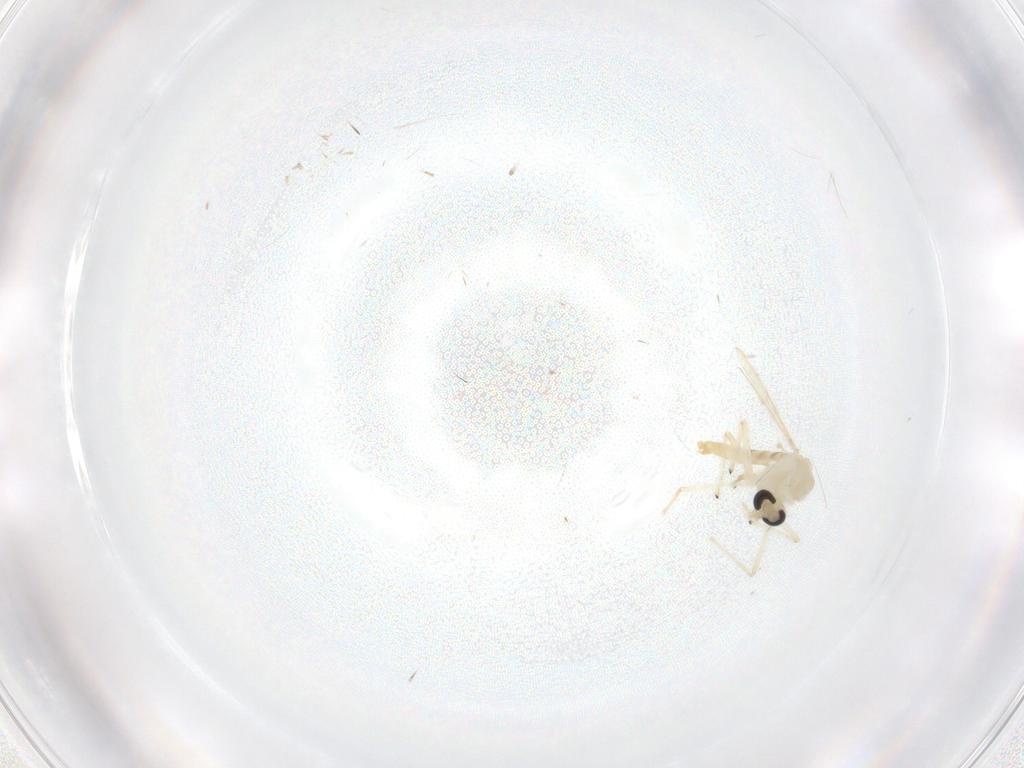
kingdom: Animalia
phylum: Arthropoda
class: Insecta
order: Diptera
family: Chironomidae
